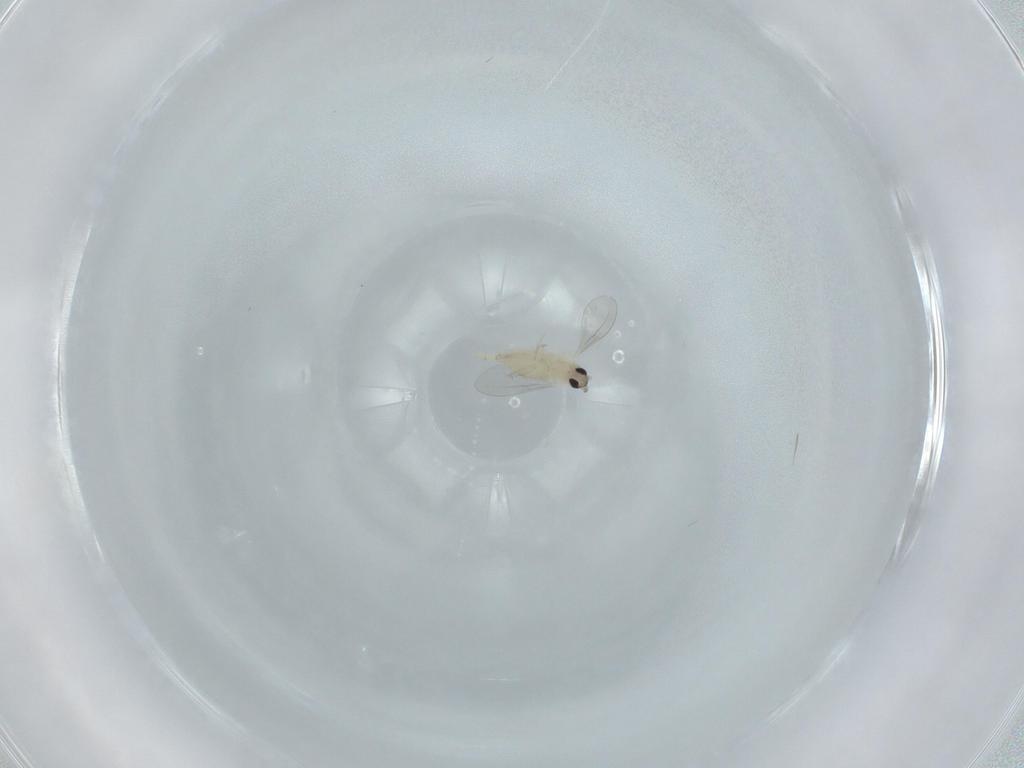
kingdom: Animalia
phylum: Arthropoda
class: Insecta
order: Diptera
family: Cecidomyiidae
